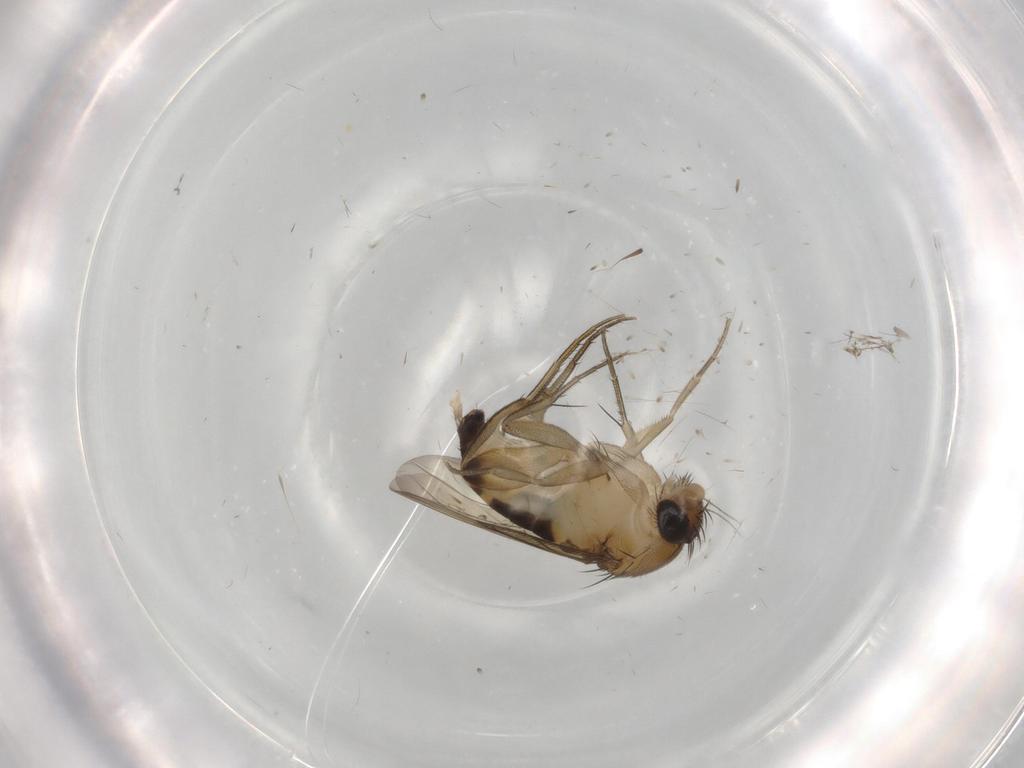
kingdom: Animalia
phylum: Arthropoda
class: Insecta
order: Diptera
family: Phoridae
